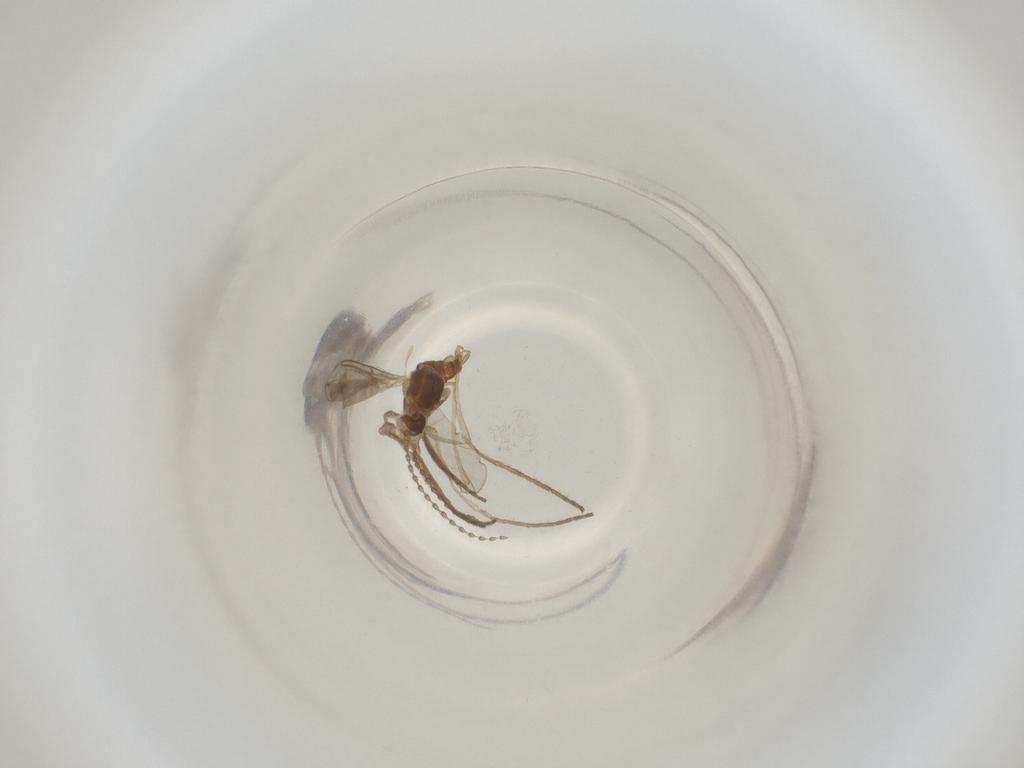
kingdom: Animalia
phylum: Arthropoda
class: Insecta
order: Diptera
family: Cecidomyiidae
